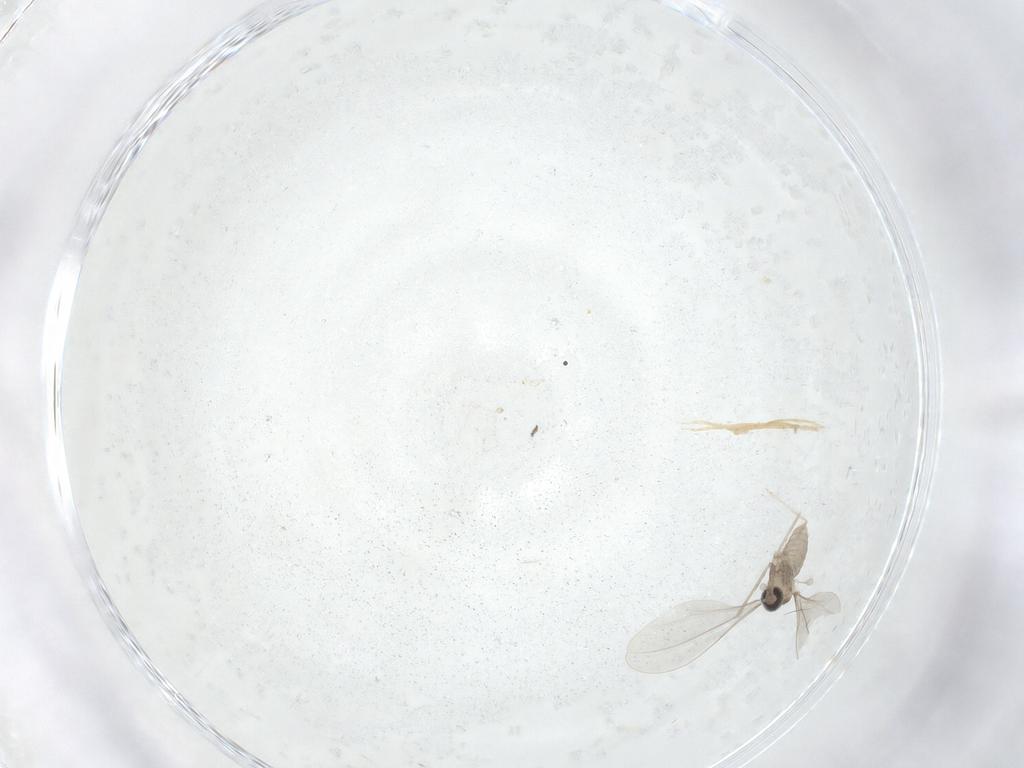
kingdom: Animalia
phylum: Arthropoda
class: Insecta
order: Diptera
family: Cecidomyiidae
